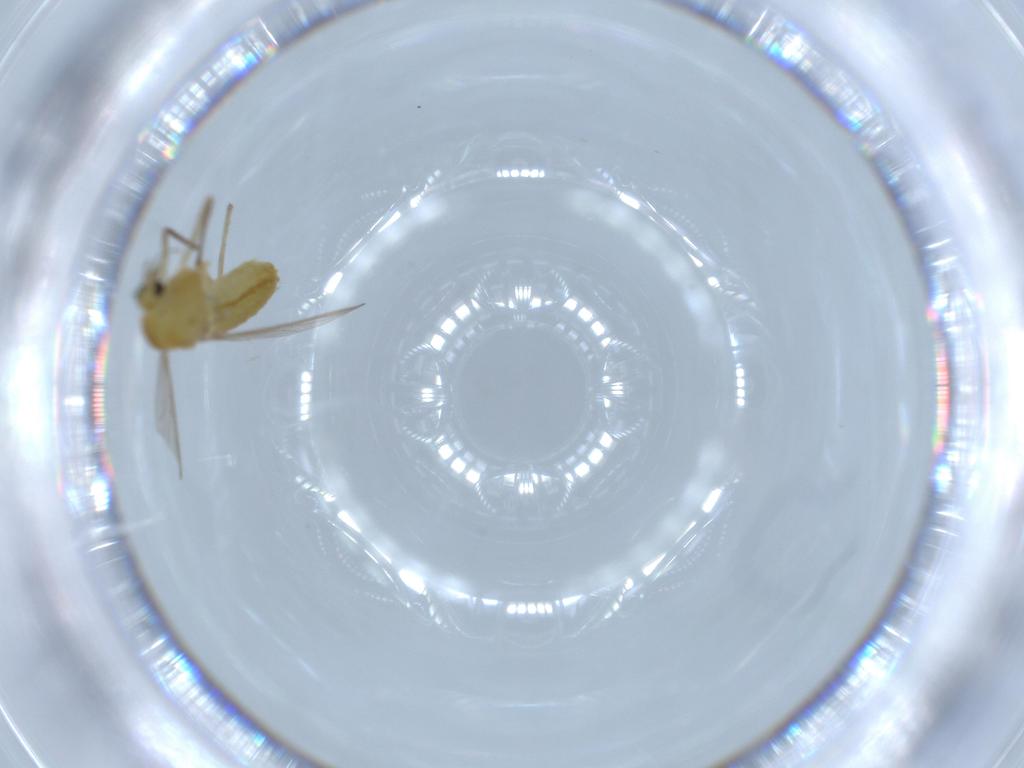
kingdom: Animalia
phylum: Arthropoda
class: Insecta
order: Diptera
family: Chironomidae
